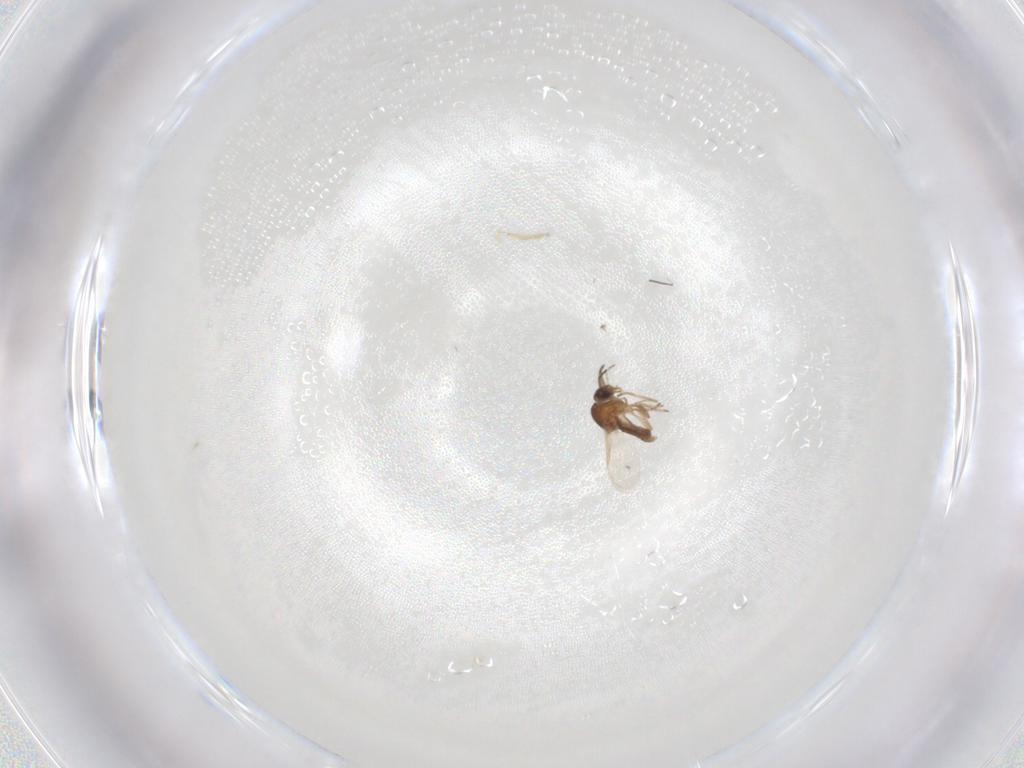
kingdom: Animalia
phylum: Arthropoda
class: Insecta
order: Diptera
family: Ceratopogonidae
